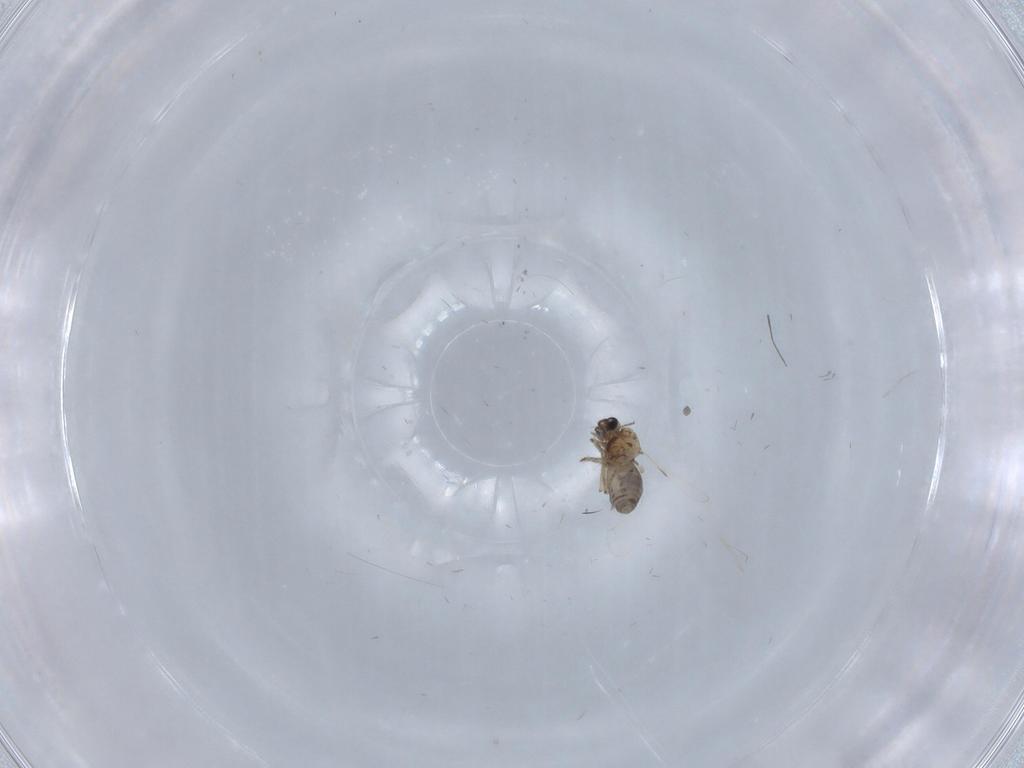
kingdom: Animalia
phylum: Arthropoda
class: Insecta
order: Diptera
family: Ceratopogonidae
